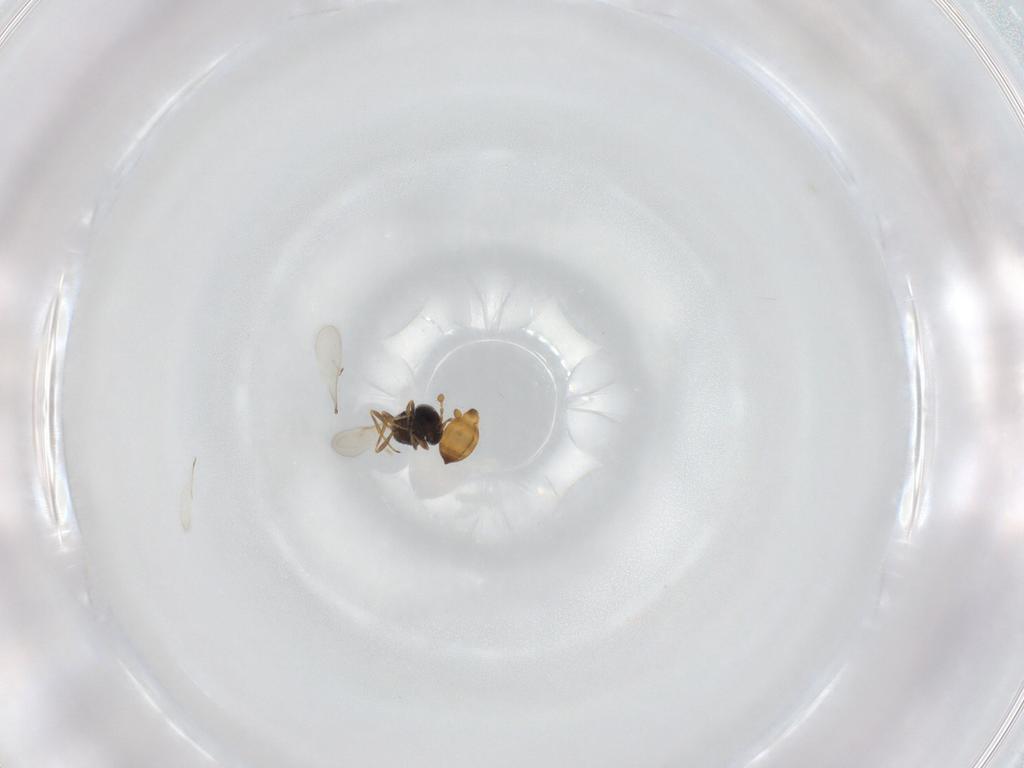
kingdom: Animalia
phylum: Arthropoda
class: Insecta
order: Hymenoptera
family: Scelionidae
